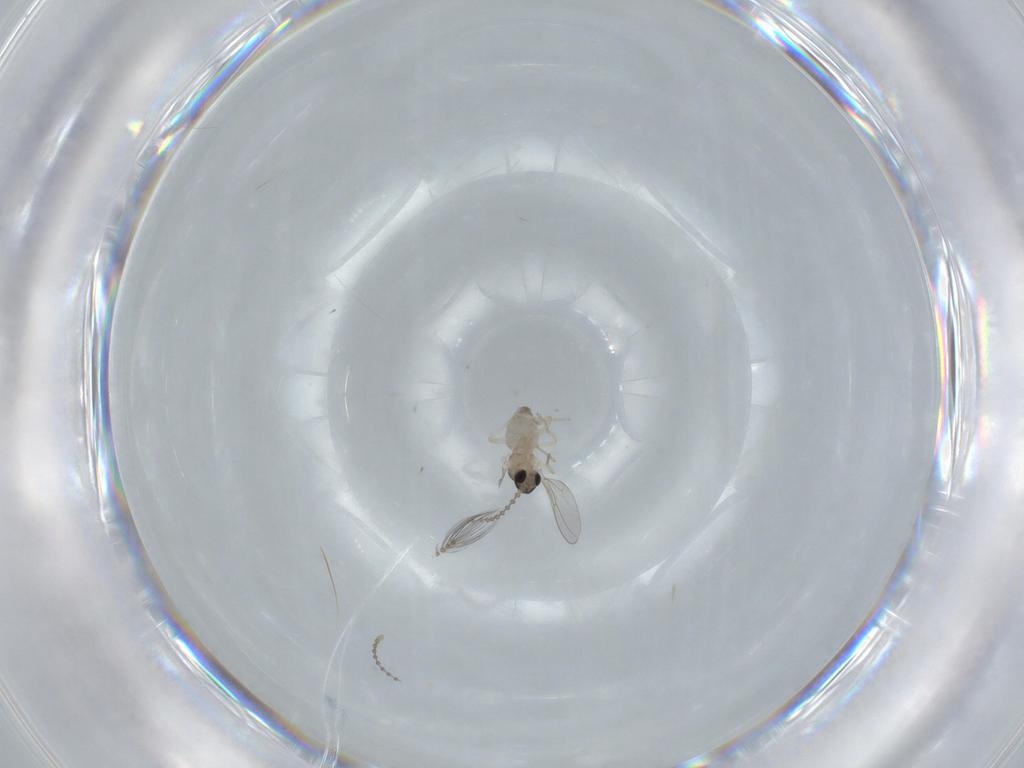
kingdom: Animalia
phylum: Arthropoda
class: Insecta
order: Diptera
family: Cecidomyiidae
